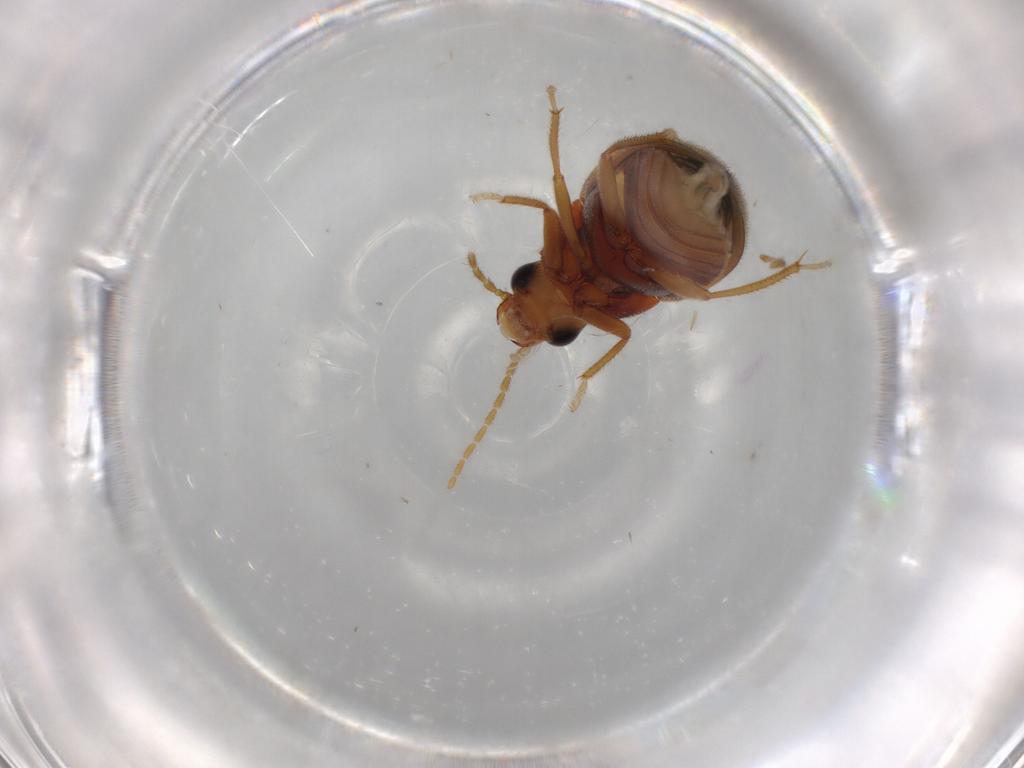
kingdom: Animalia
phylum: Arthropoda
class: Insecta
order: Coleoptera
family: Ptilodactylidae
